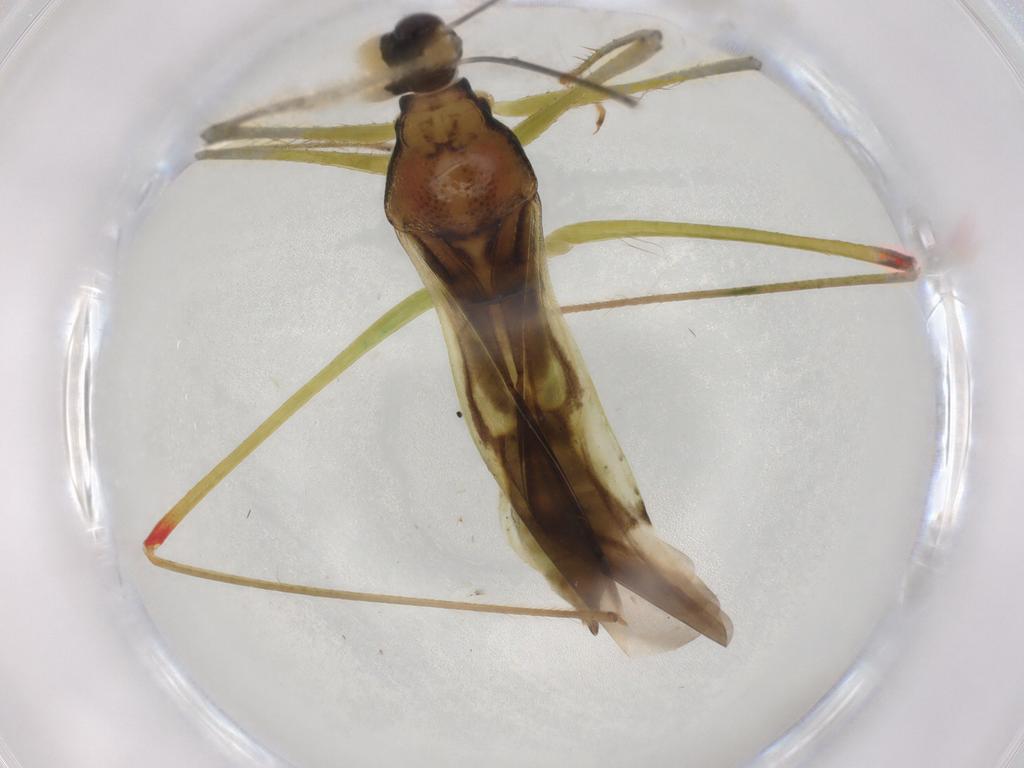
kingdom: Animalia
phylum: Arthropoda
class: Insecta
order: Hemiptera
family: Nabidae
